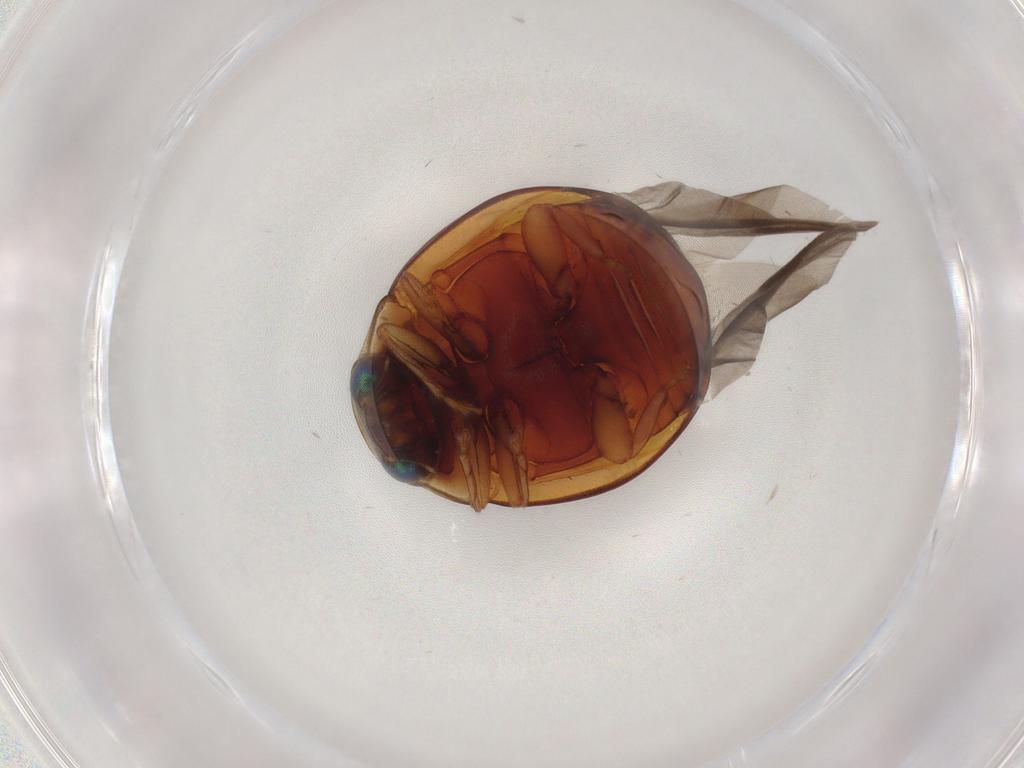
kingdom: Animalia
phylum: Arthropoda
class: Insecta
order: Coleoptera
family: Coccinellidae
